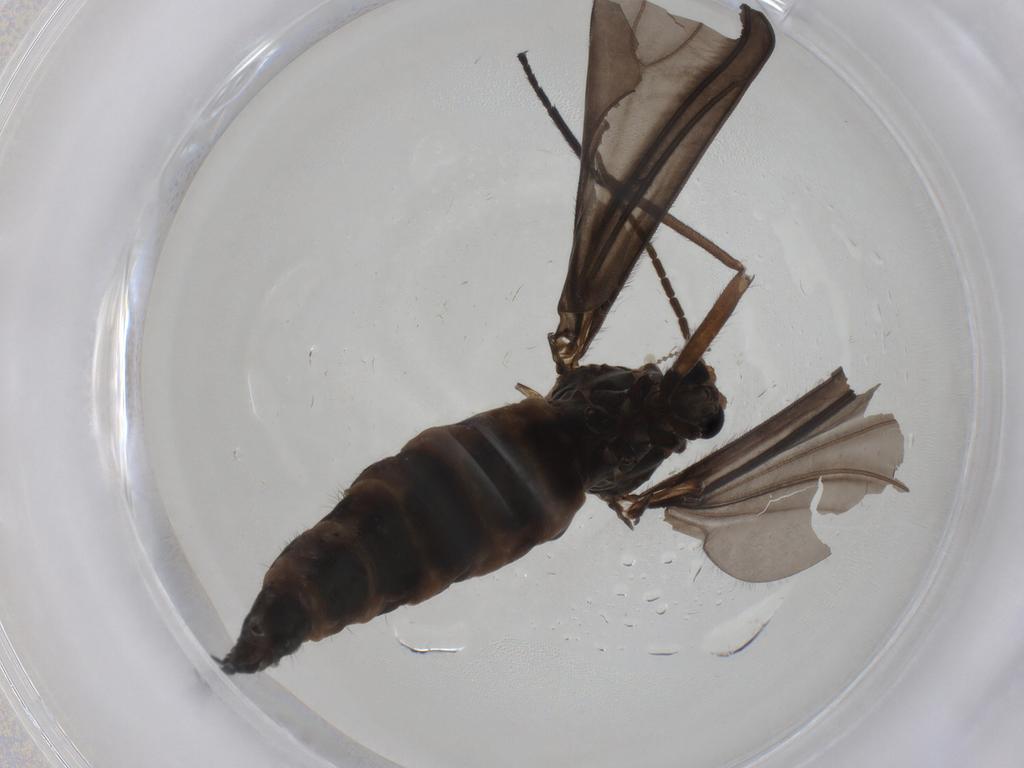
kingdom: Animalia
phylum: Arthropoda
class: Insecta
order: Diptera
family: Sciaridae
